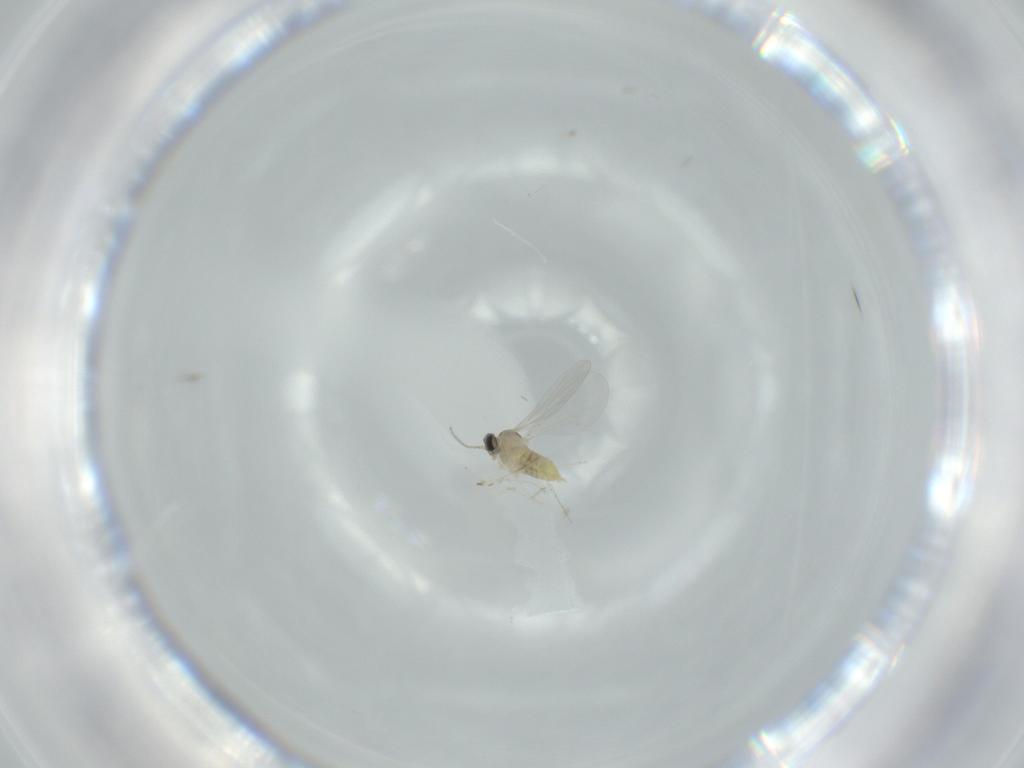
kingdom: Animalia
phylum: Arthropoda
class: Insecta
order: Diptera
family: Cecidomyiidae
